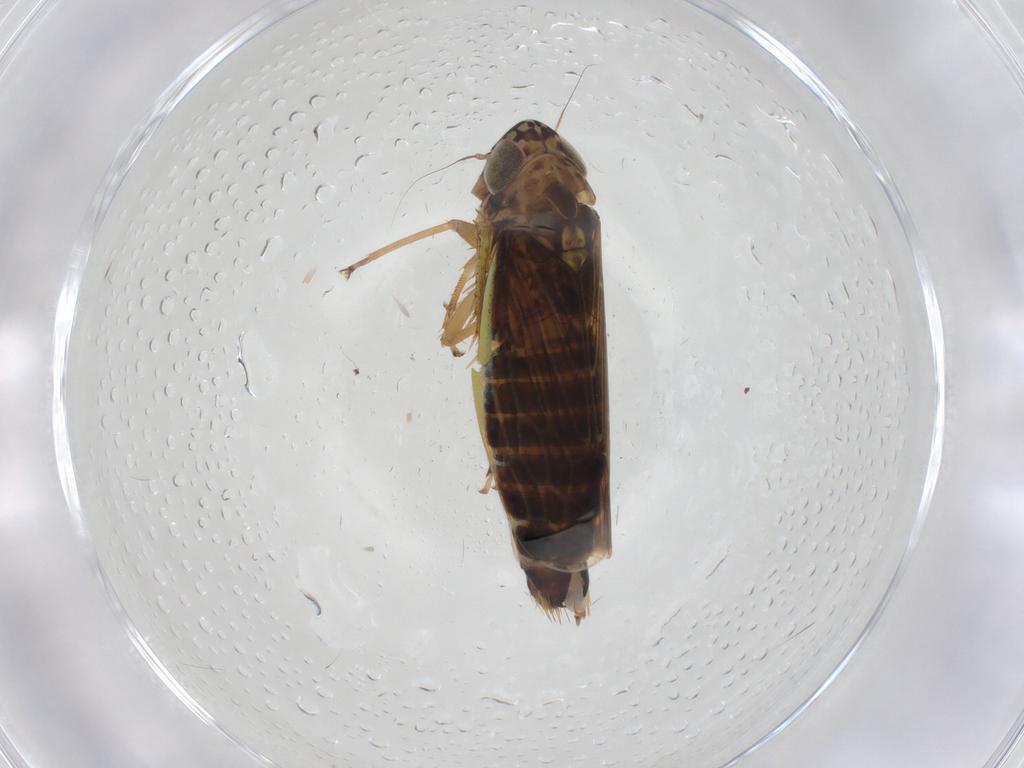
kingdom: Animalia
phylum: Arthropoda
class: Insecta
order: Hemiptera
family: Cicadellidae
